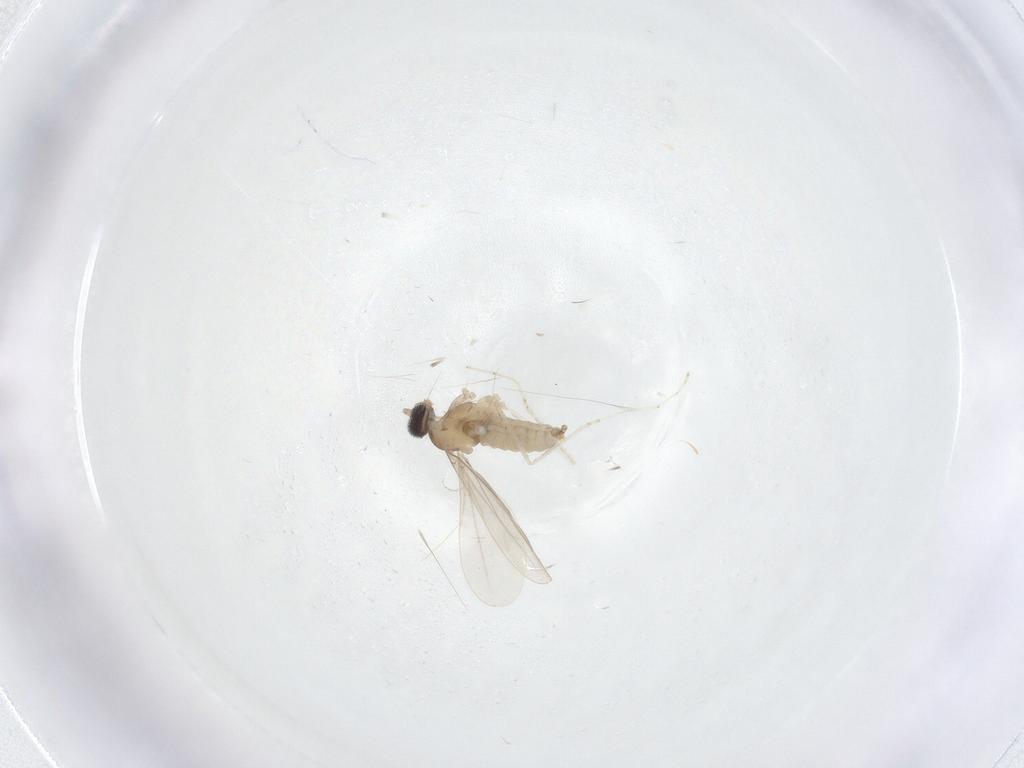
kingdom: Animalia
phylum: Arthropoda
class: Insecta
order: Diptera
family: Cecidomyiidae
